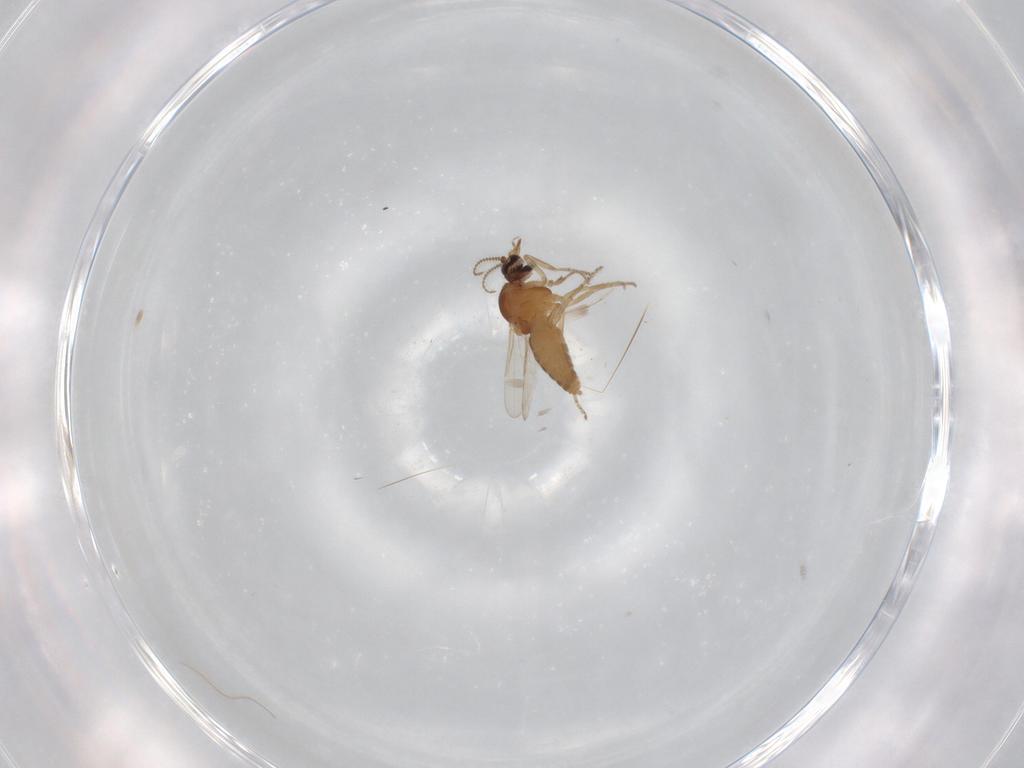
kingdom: Animalia
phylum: Arthropoda
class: Insecta
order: Diptera
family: Ceratopogonidae
